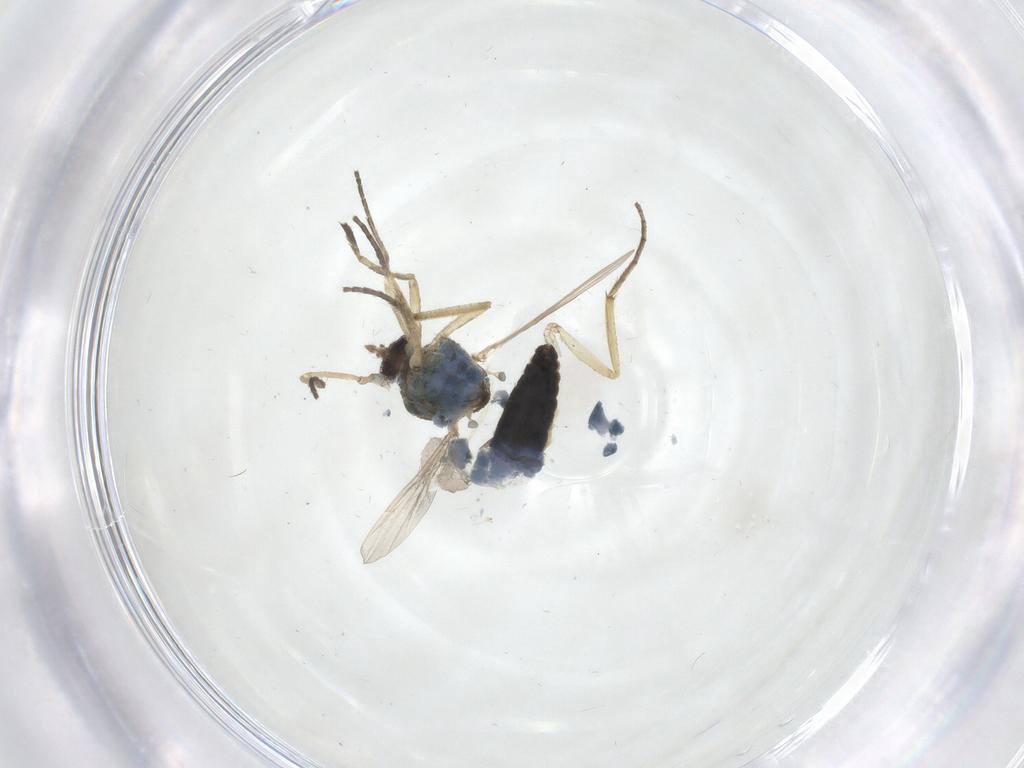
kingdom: Animalia
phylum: Arthropoda
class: Insecta
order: Diptera
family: Ceratopogonidae
